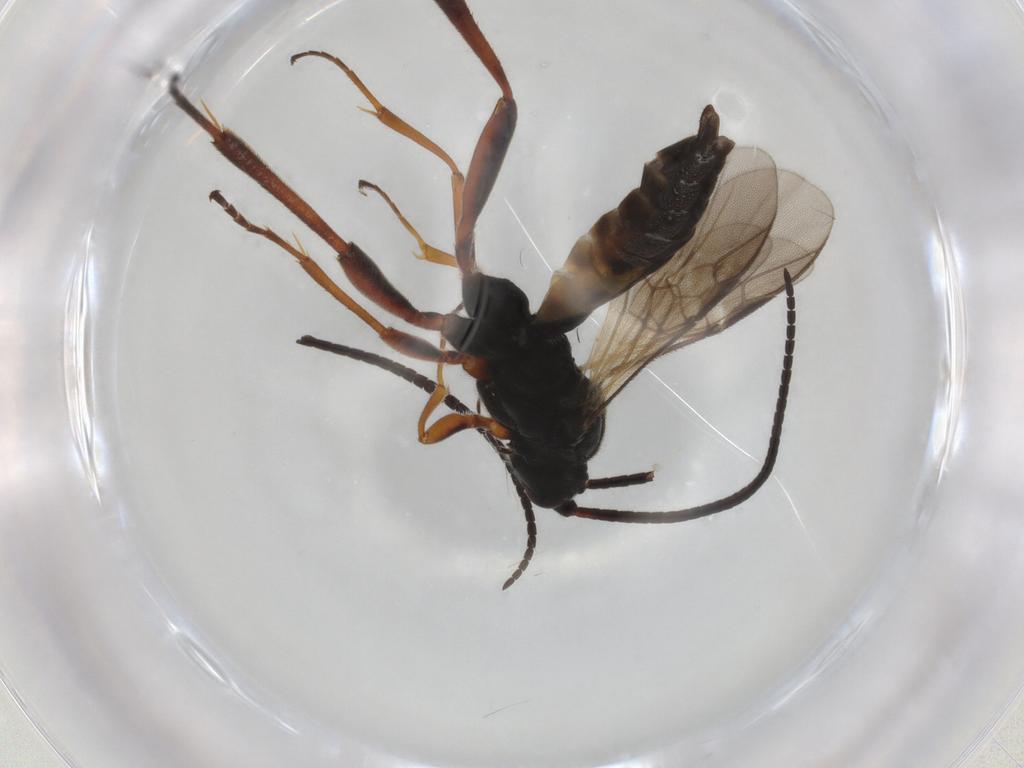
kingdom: Animalia
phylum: Arthropoda
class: Insecta
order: Hymenoptera
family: Braconidae
